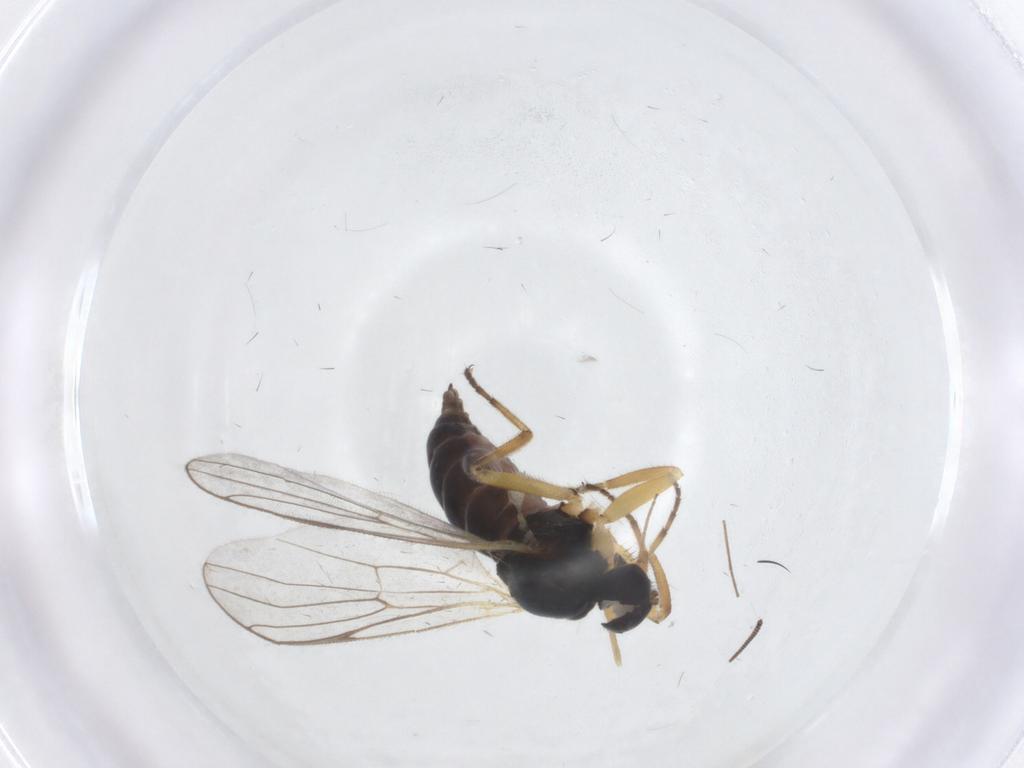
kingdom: Animalia
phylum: Arthropoda
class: Insecta
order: Diptera
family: Hybotidae
